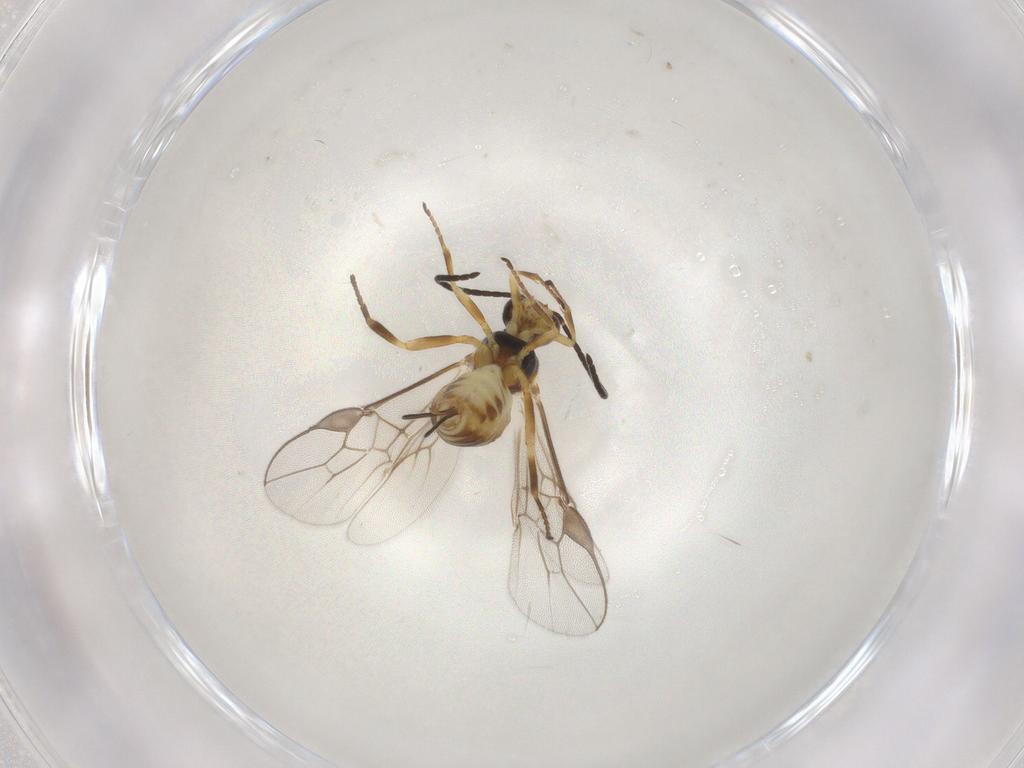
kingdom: Animalia
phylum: Arthropoda
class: Insecta
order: Hymenoptera
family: Braconidae
